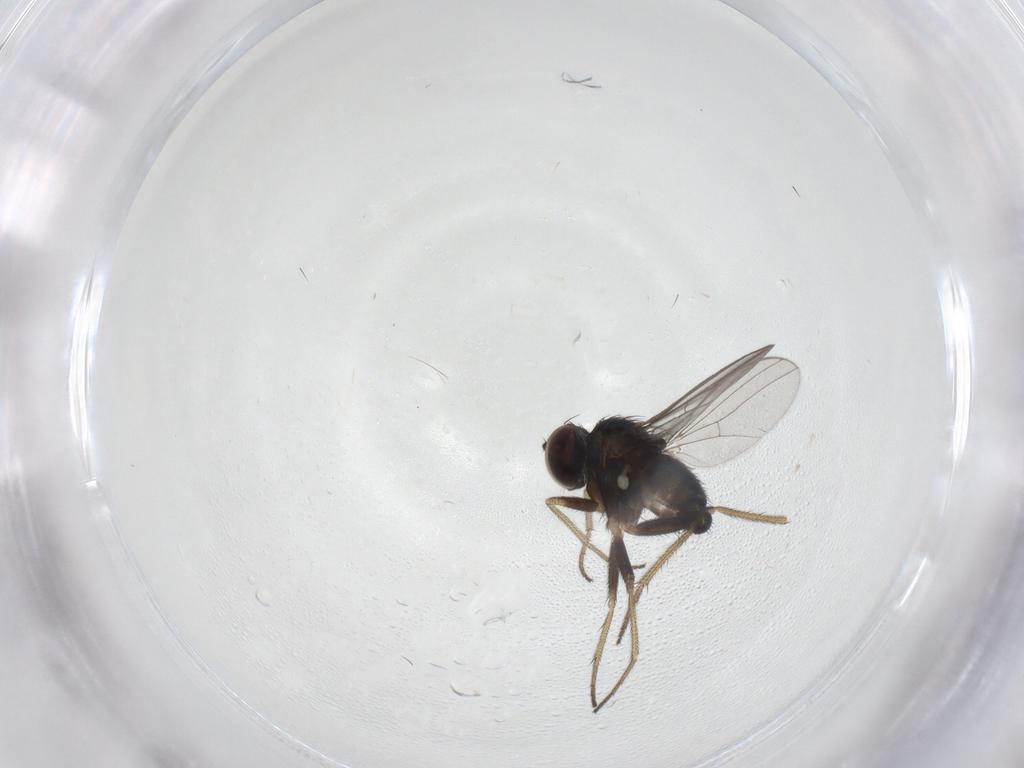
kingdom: Animalia
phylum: Arthropoda
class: Insecta
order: Diptera
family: Dolichopodidae
